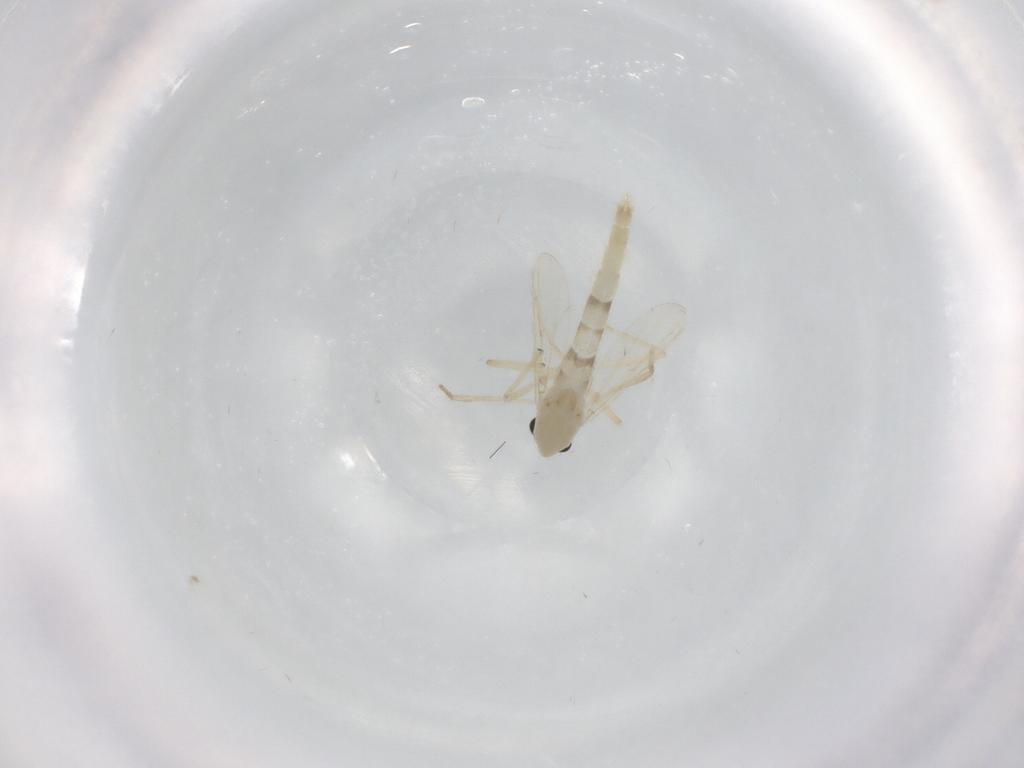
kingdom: Animalia
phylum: Arthropoda
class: Insecta
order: Diptera
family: Chironomidae
